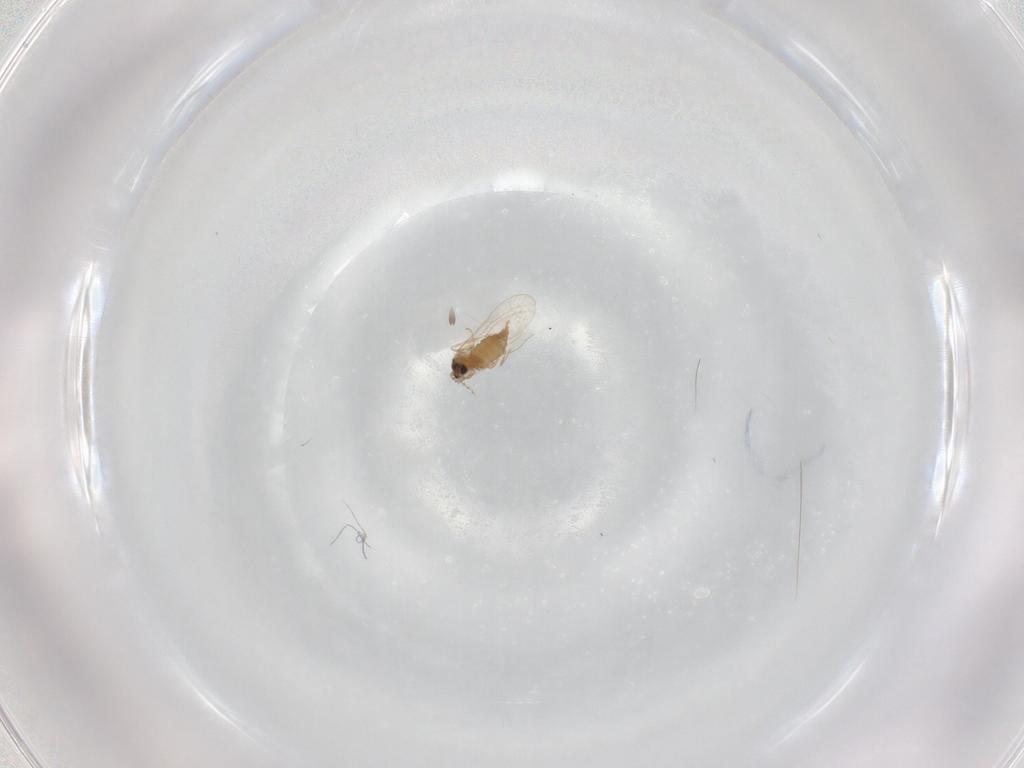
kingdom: Animalia
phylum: Arthropoda
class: Insecta
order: Diptera
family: Cecidomyiidae
